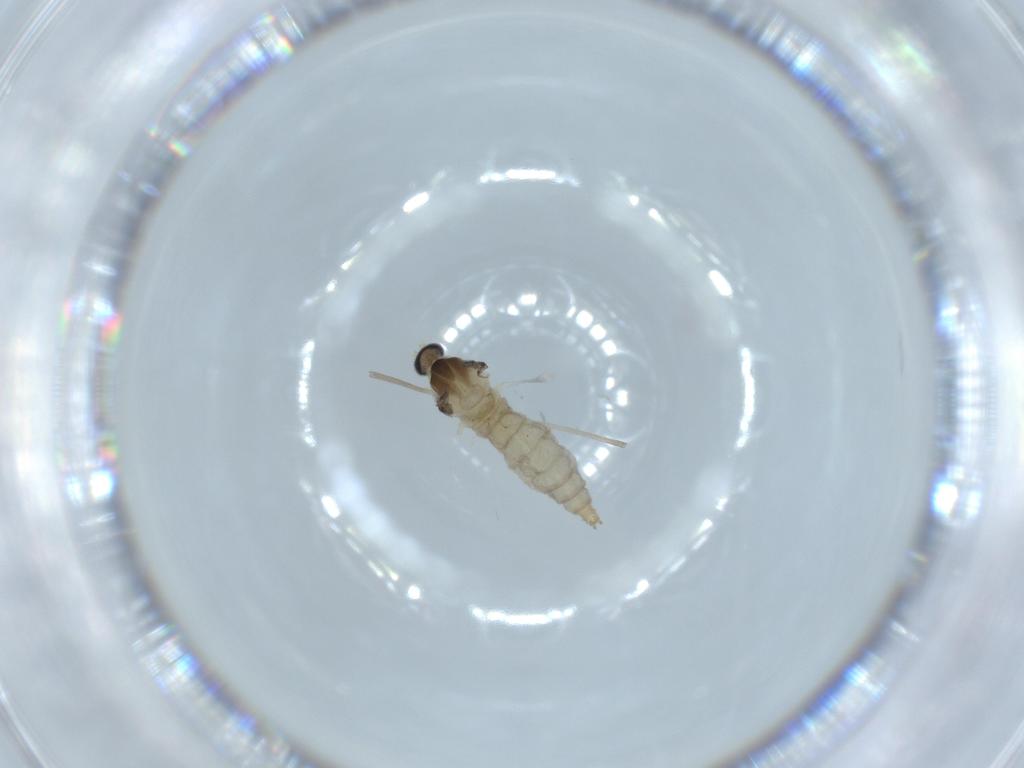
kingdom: Animalia
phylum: Arthropoda
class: Insecta
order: Diptera
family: Cecidomyiidae
